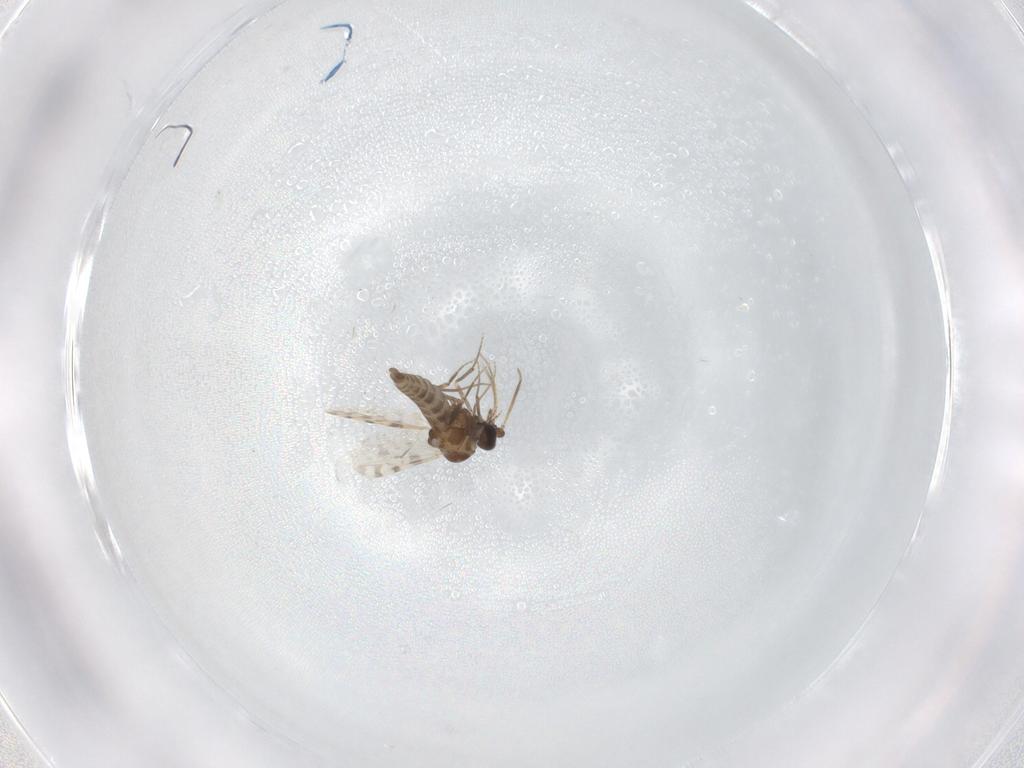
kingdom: Animalia
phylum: Arthropoda
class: Insecta
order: Diptera
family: Ceratopogonidae
